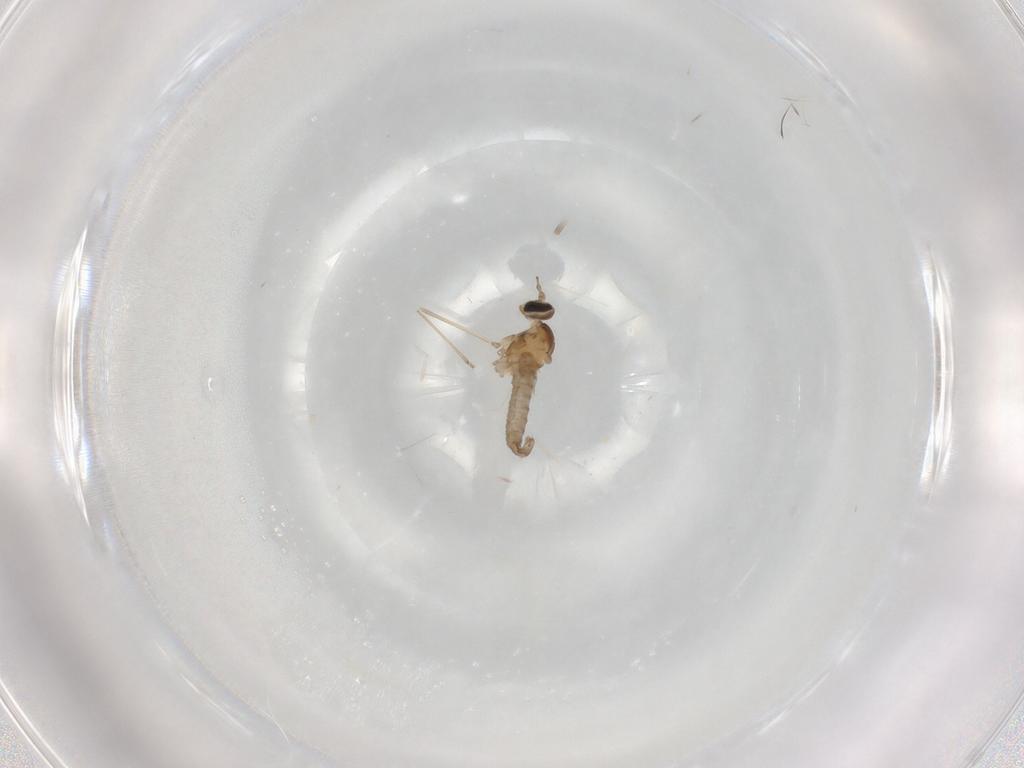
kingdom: Animalia
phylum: Arthropoda
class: Insecta
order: Diptera
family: Cecidomyiidae
